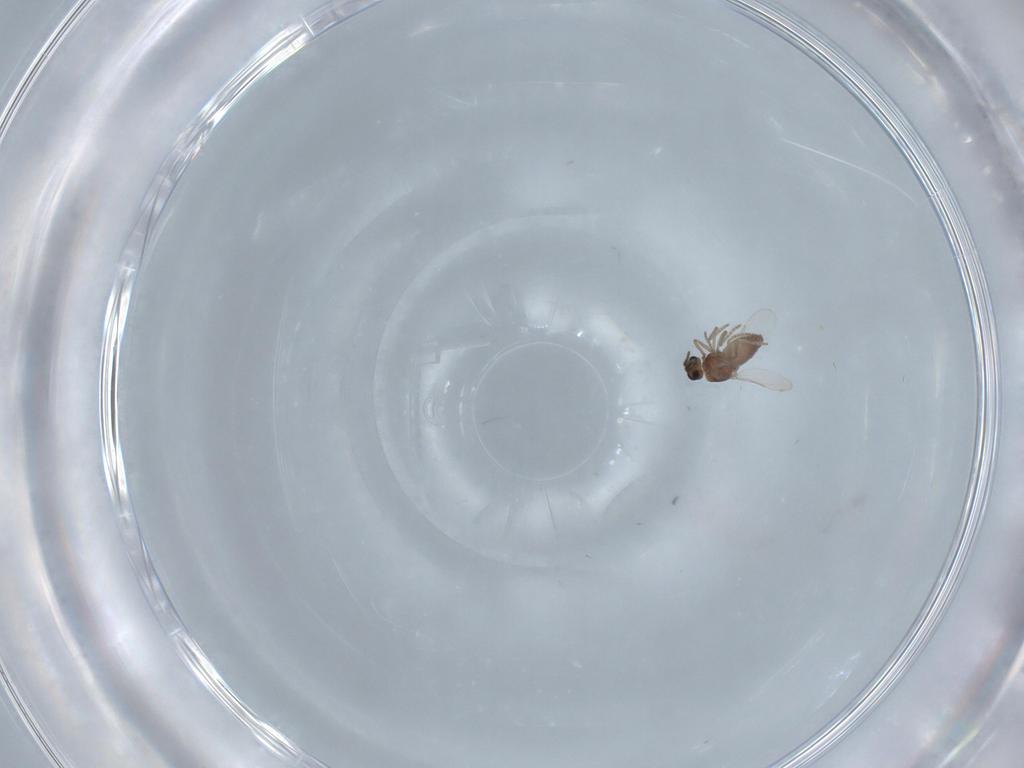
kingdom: Animalia
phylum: Arthropoda
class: Insecta
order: Diptera
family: Ceratopogonidae
